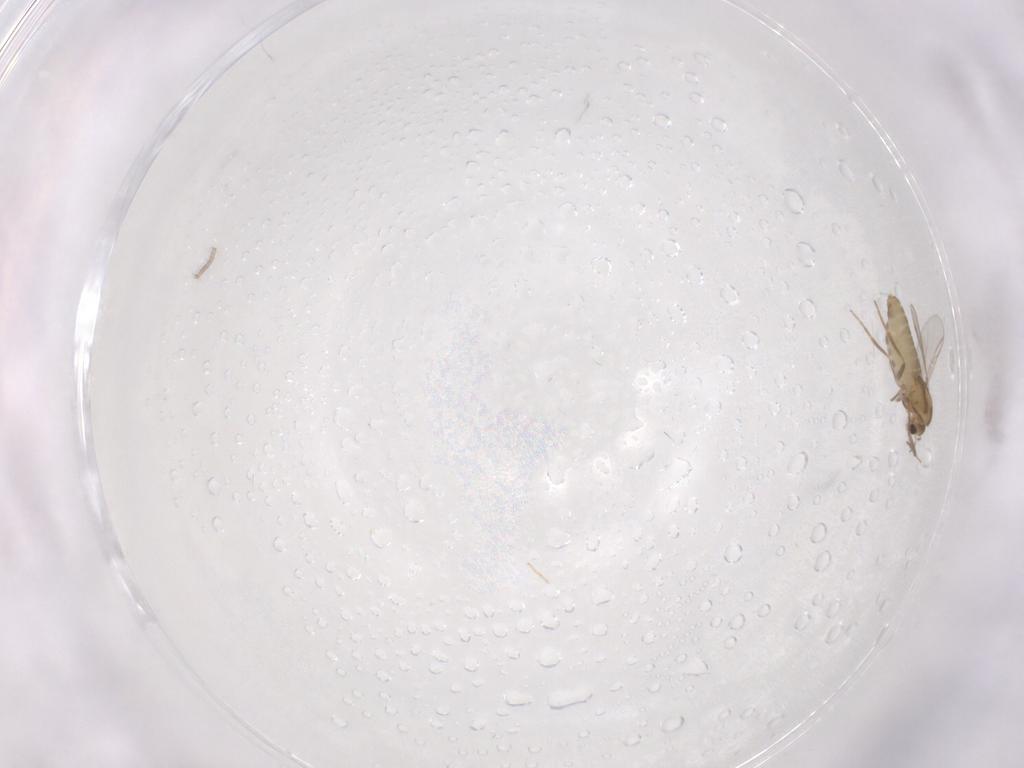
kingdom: Animalia
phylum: Arthropoda
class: Insecta
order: Diptera
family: Chironomidae
